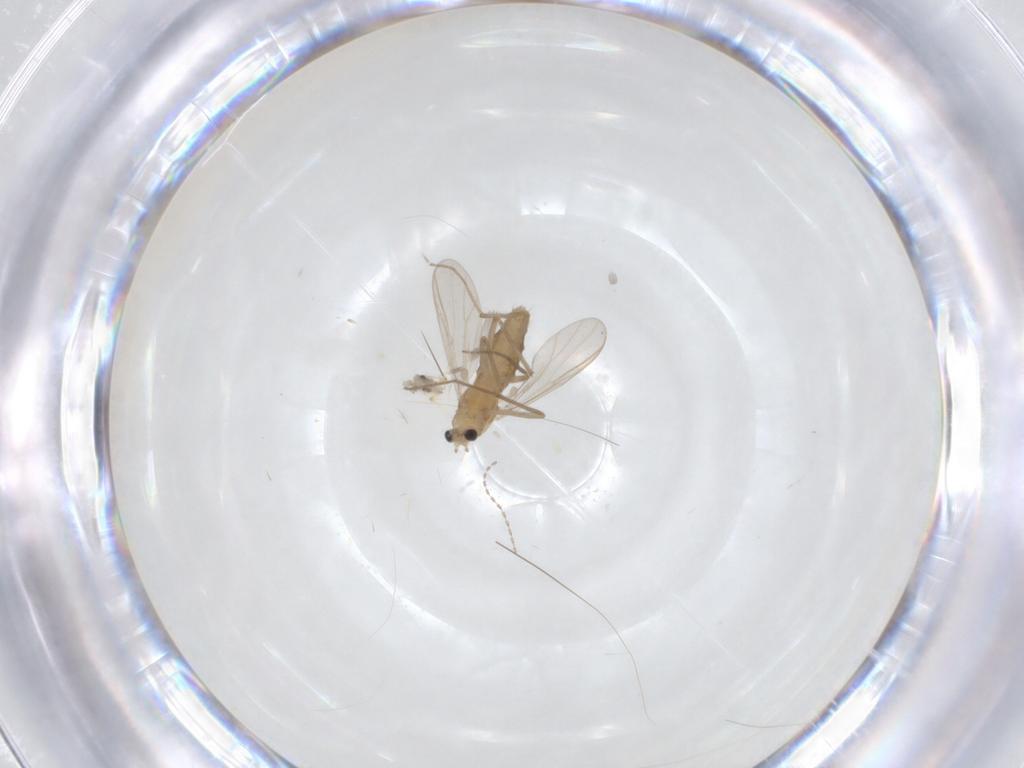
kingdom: Animalia
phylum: Arthropoda
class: Insecta
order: Diptera
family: Chironomidae
